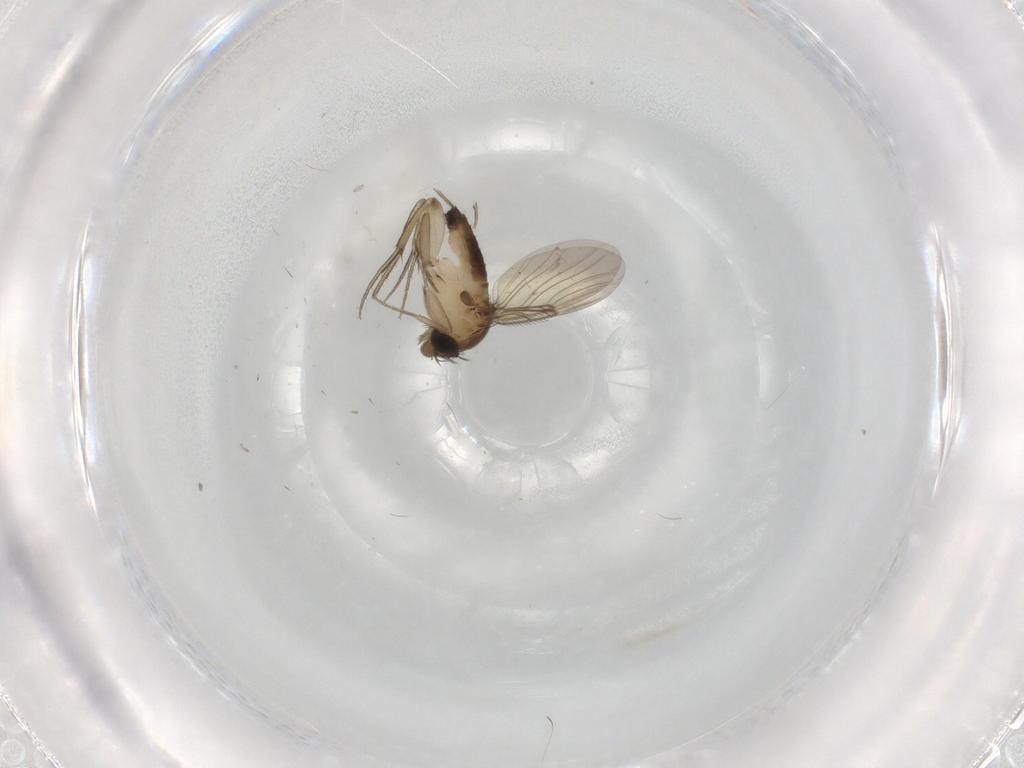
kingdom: Animalia
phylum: Arthropoda
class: Insecta
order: Diptera
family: Phoridae
